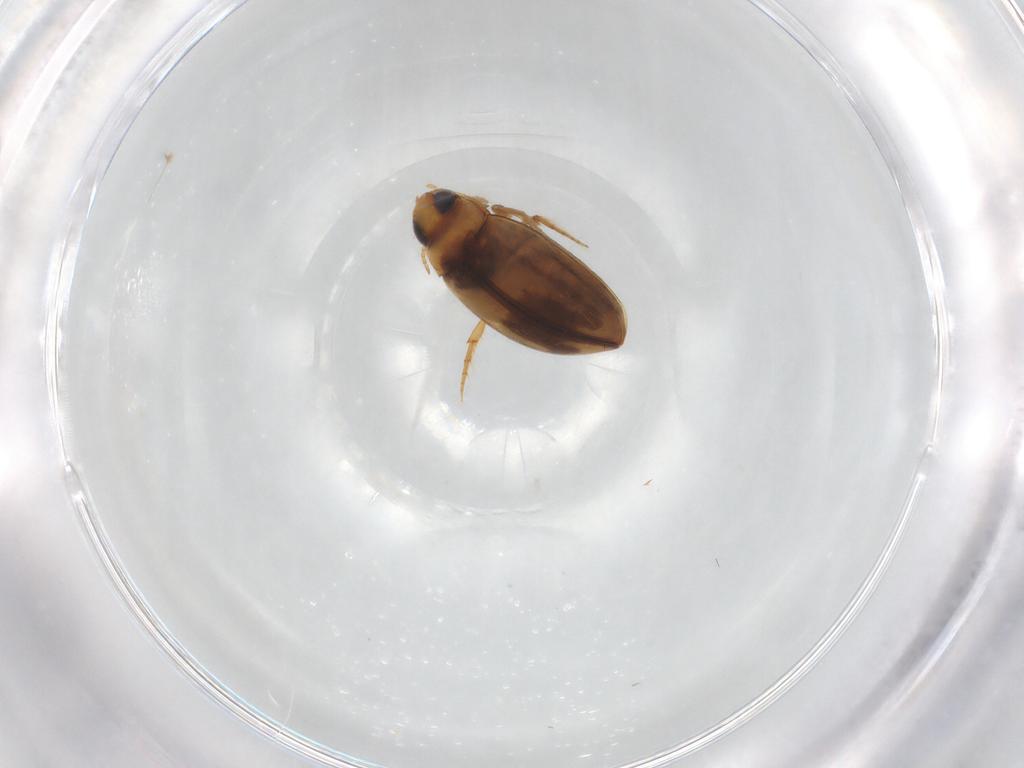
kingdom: Animalia
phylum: Arthropoda
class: Insecta
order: Coleoptera
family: Dytiscidae
